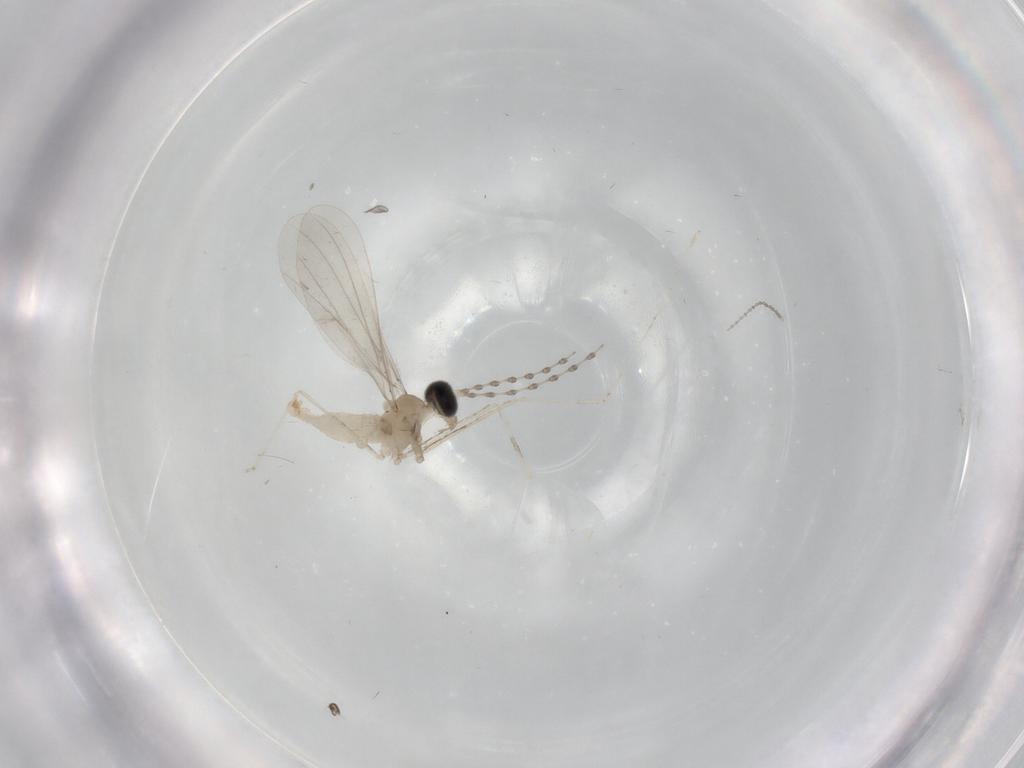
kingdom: Animalia
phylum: Arthropoda
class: Insecta
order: Diptera
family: Cecidomyiidae
